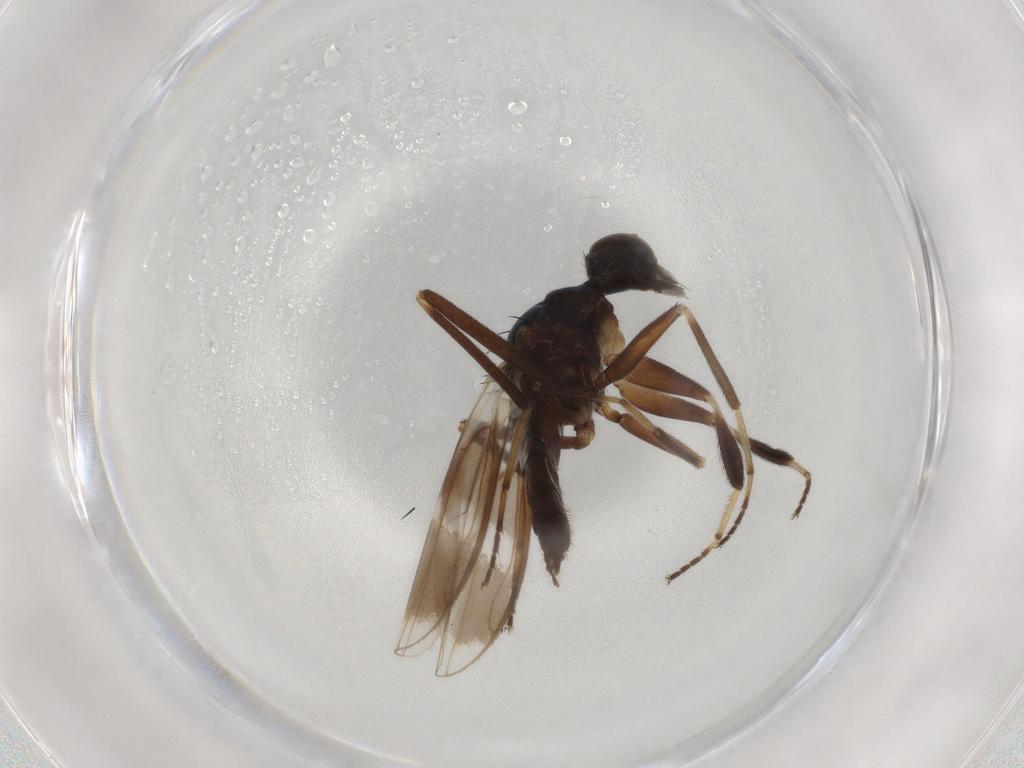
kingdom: Animalia
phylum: Arthropoda
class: Insecta
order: Diptera
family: Hybotidae
